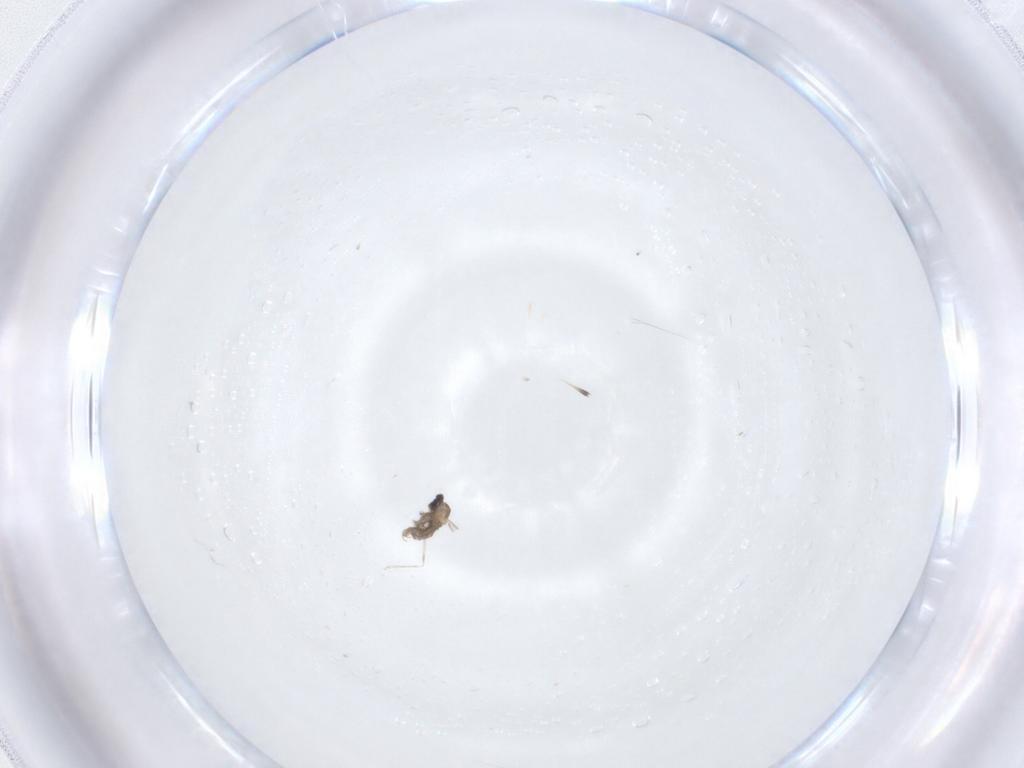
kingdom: Animalia
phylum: Arthropoda
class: Insecta
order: Diptera
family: Cecidomyiidae
